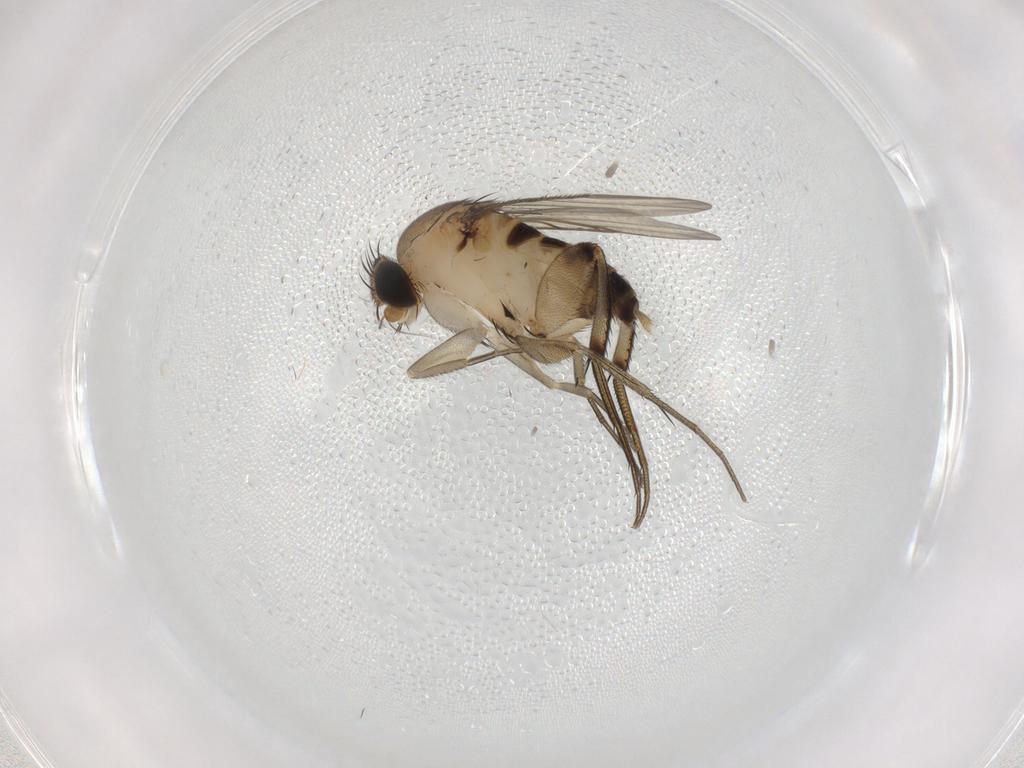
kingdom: Animalia
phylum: Arthropoda
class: Insecta
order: Diptera
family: Phoridae
